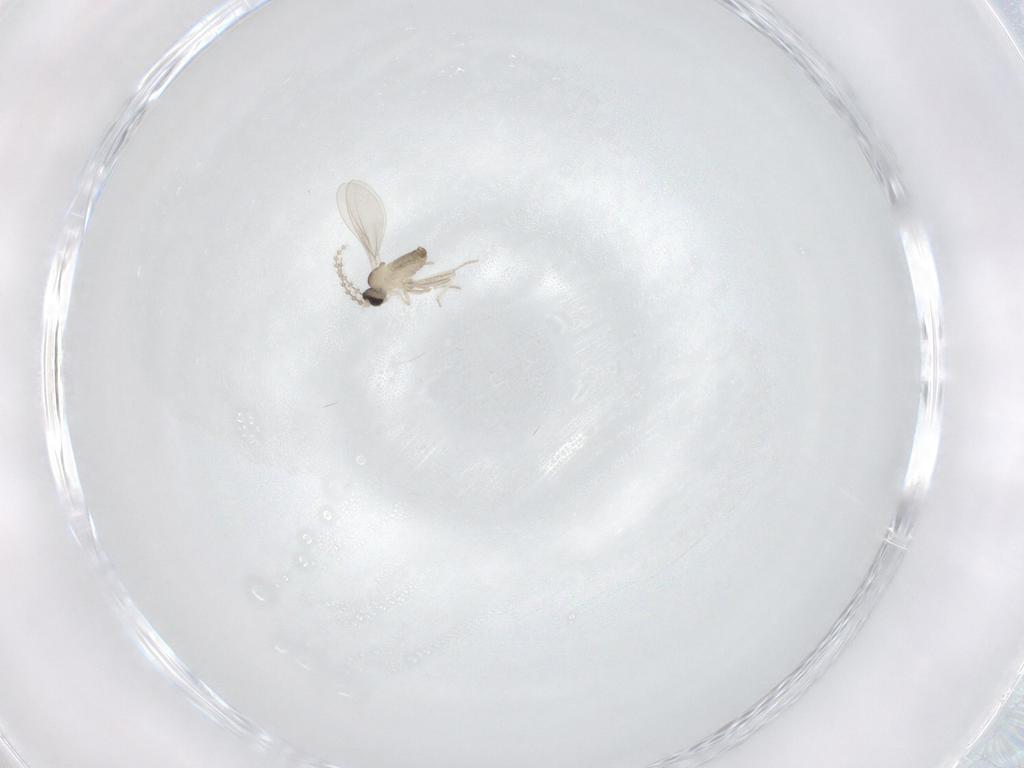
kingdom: Animalia
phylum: Arthropoda
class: Insecta
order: Diptera
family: Cecidomyiidae
